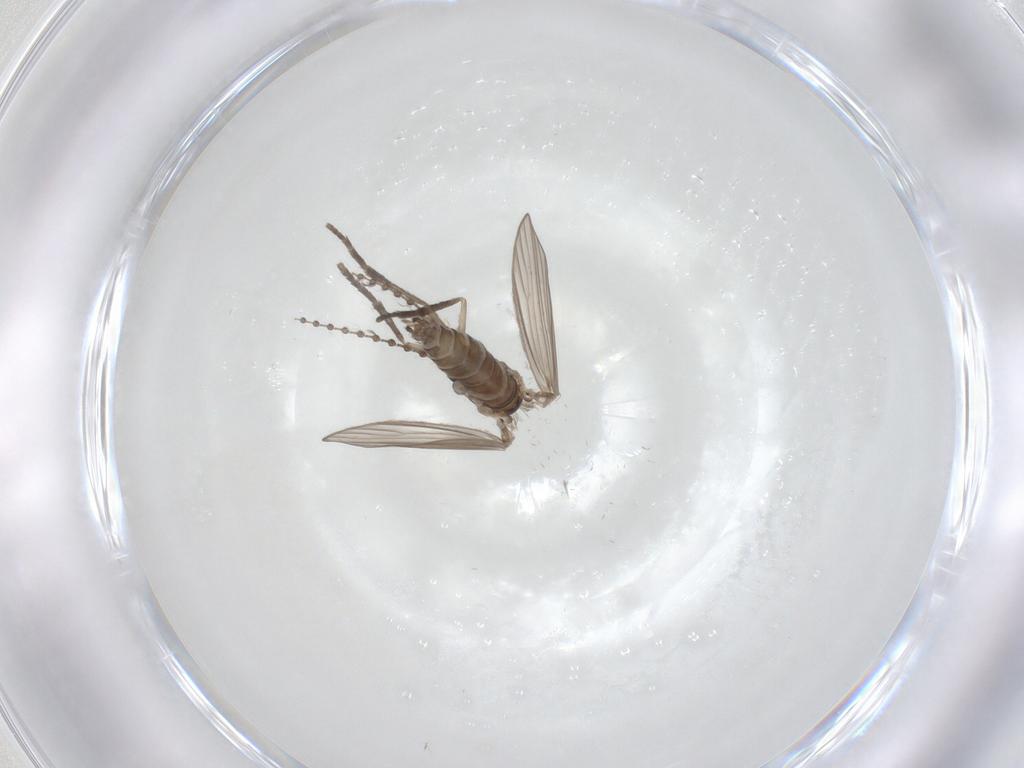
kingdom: Animalia
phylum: Arthropoda
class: Insecta
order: Diptera
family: Psychodidae
